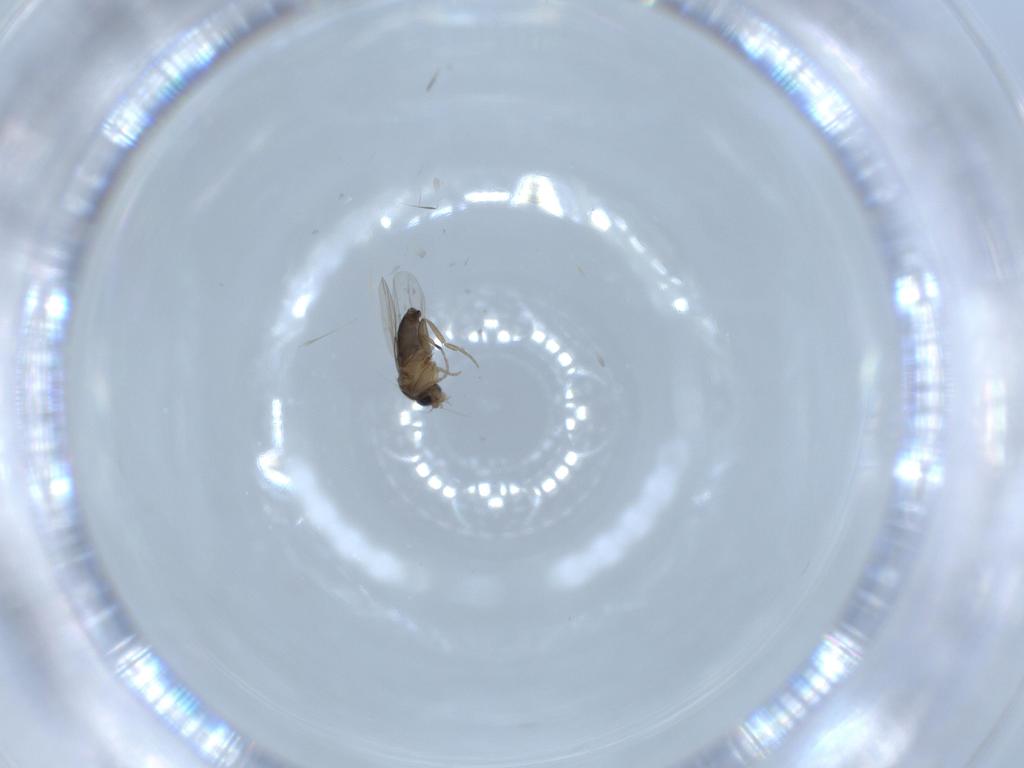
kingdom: Animalia
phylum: Arthropoda
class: Insecta
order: Diptera
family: Phoridae
